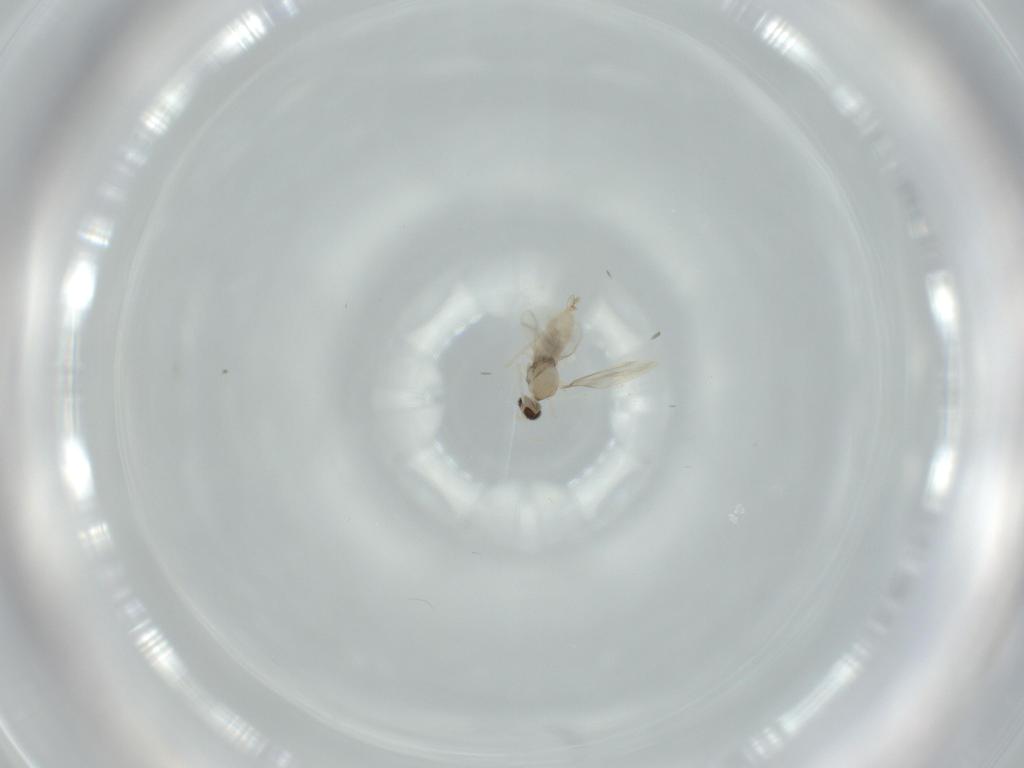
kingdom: Animalia
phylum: Arthropoda
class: Insecta
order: Diptera
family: Cecidomyiidae
